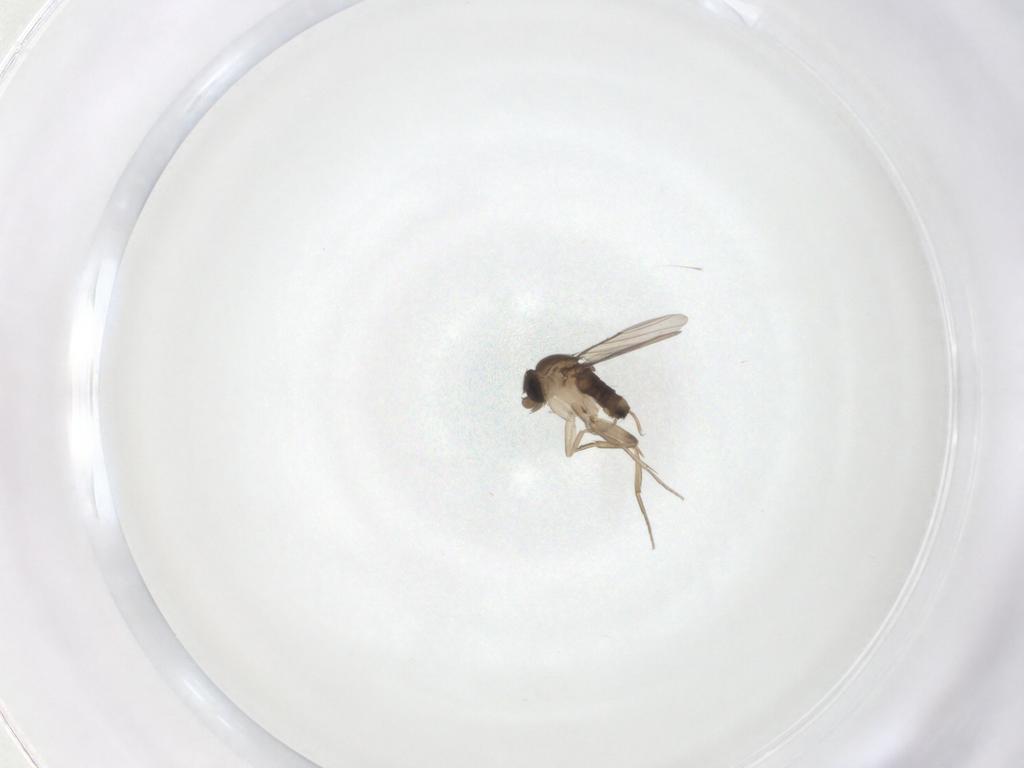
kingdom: Animalia
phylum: Arthropoda
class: Insecta
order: Diptera
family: Phoridae
